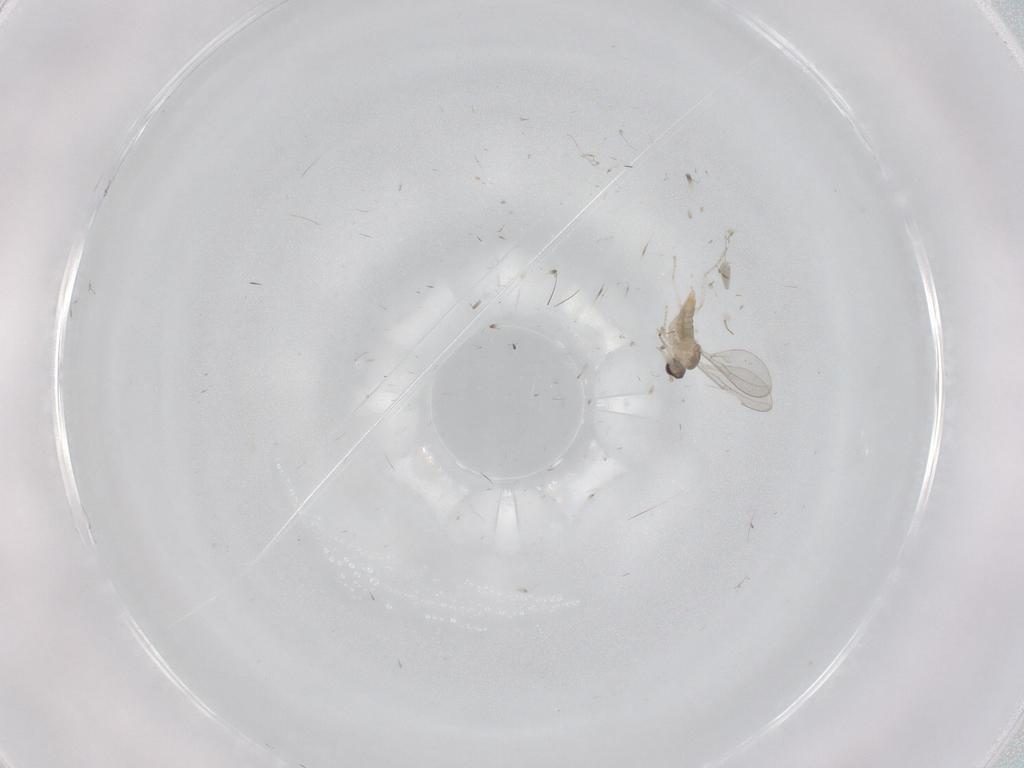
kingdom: Animalia
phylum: Arthropoda
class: Insecta
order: Diptera
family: Cecidomyiidae
